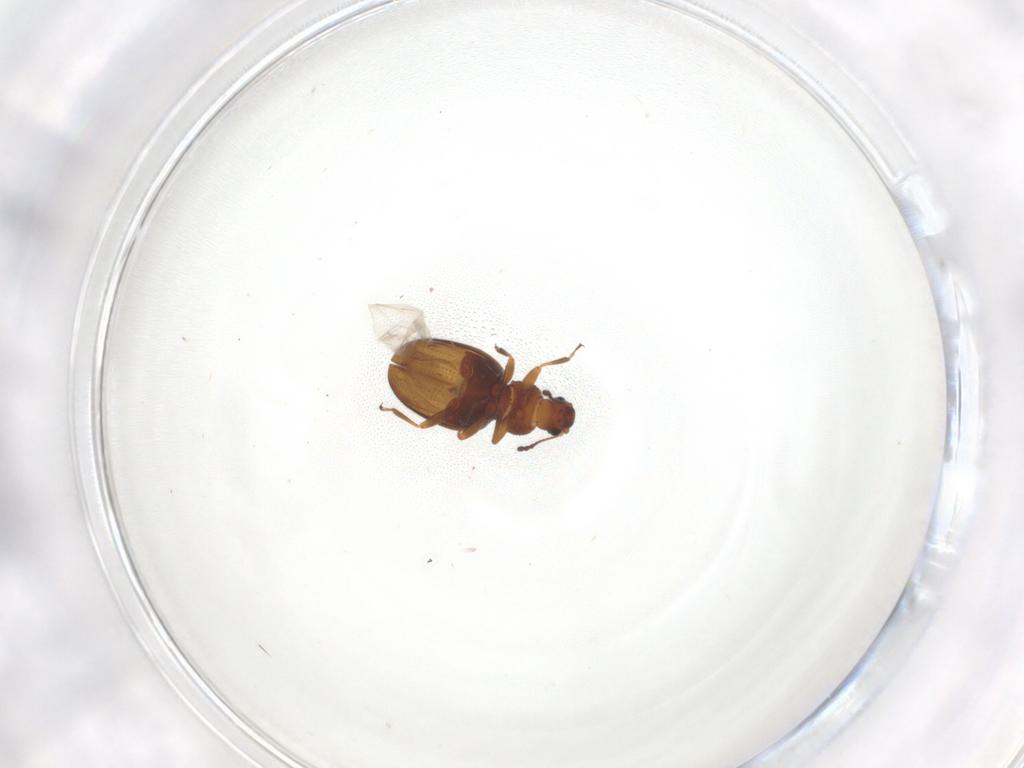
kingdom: Animalia
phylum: Arthropoda
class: Insecta
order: Coleoptera
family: Latridiidae
